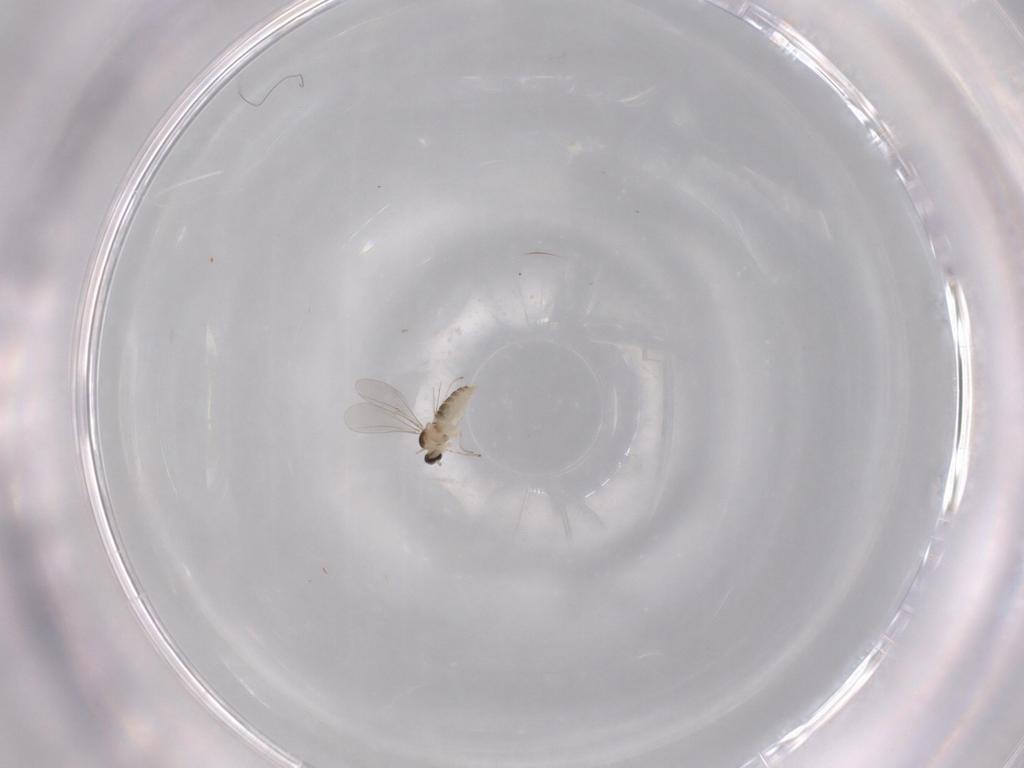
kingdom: Animalia
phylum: Arthropoda
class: Insecta
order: Diptera
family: Cecidomyiidae
